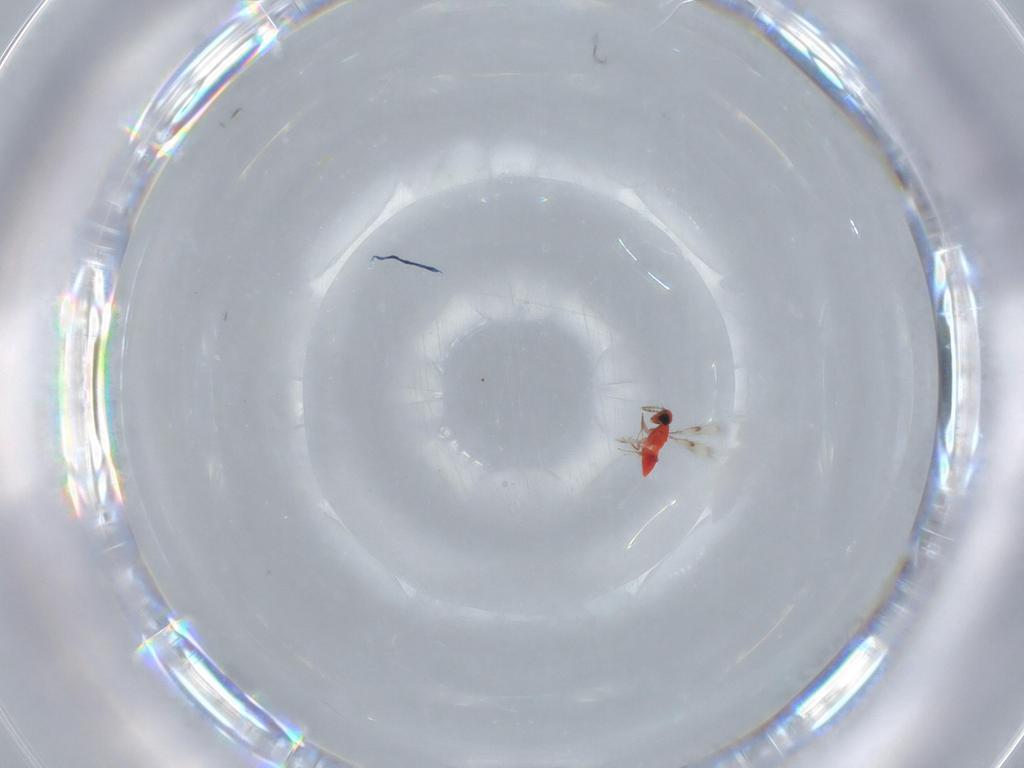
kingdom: Animalia
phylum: Arthropoda
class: Insecta
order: Hymenoptera
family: Trichogrammatidae
